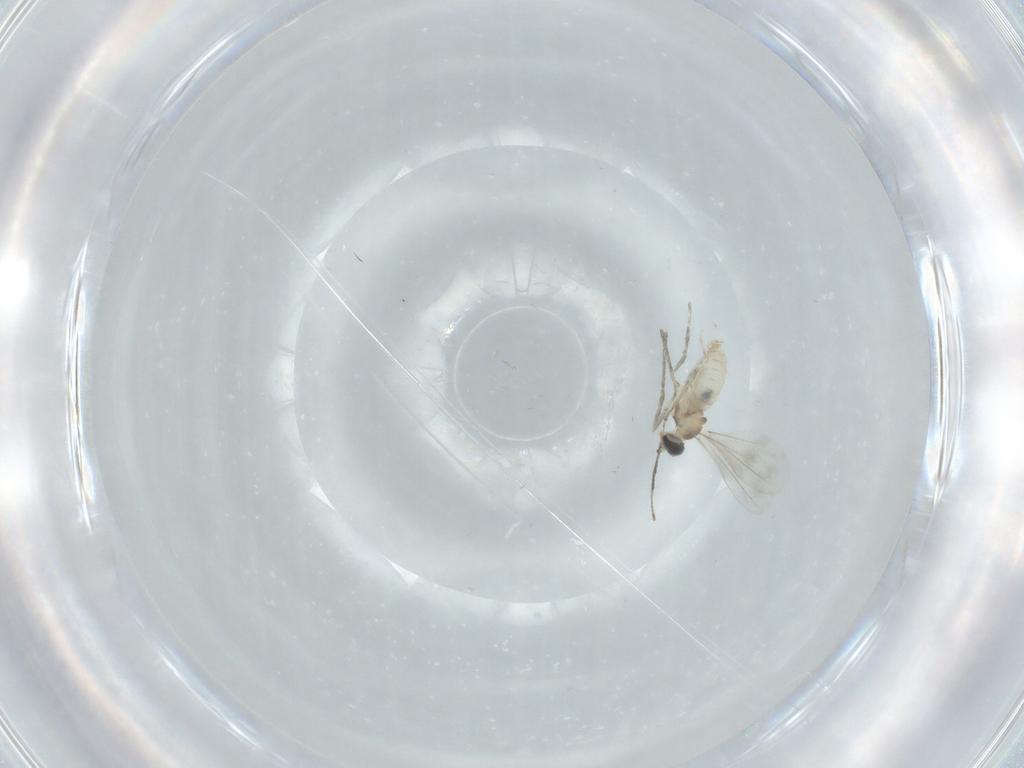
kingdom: Animalia
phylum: Arthropoda
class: Insecta
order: Diptera
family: Cecidomyiidae
